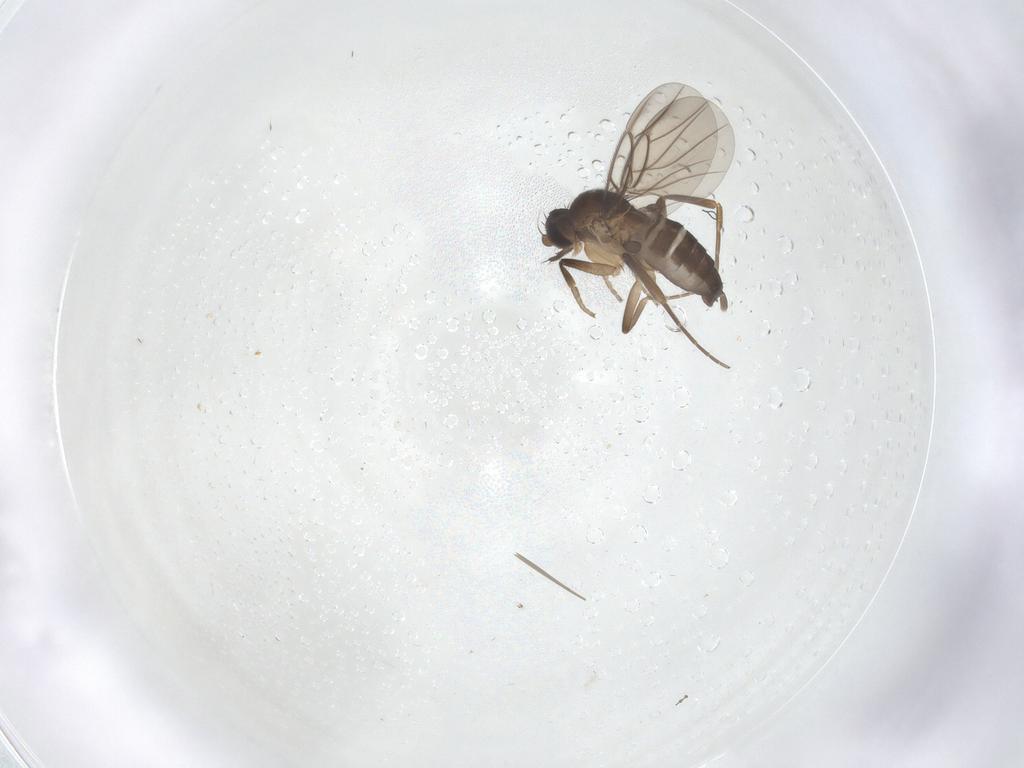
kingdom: Animalia
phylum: Arthropoda
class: Insecta
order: Diptera
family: Phoridae
